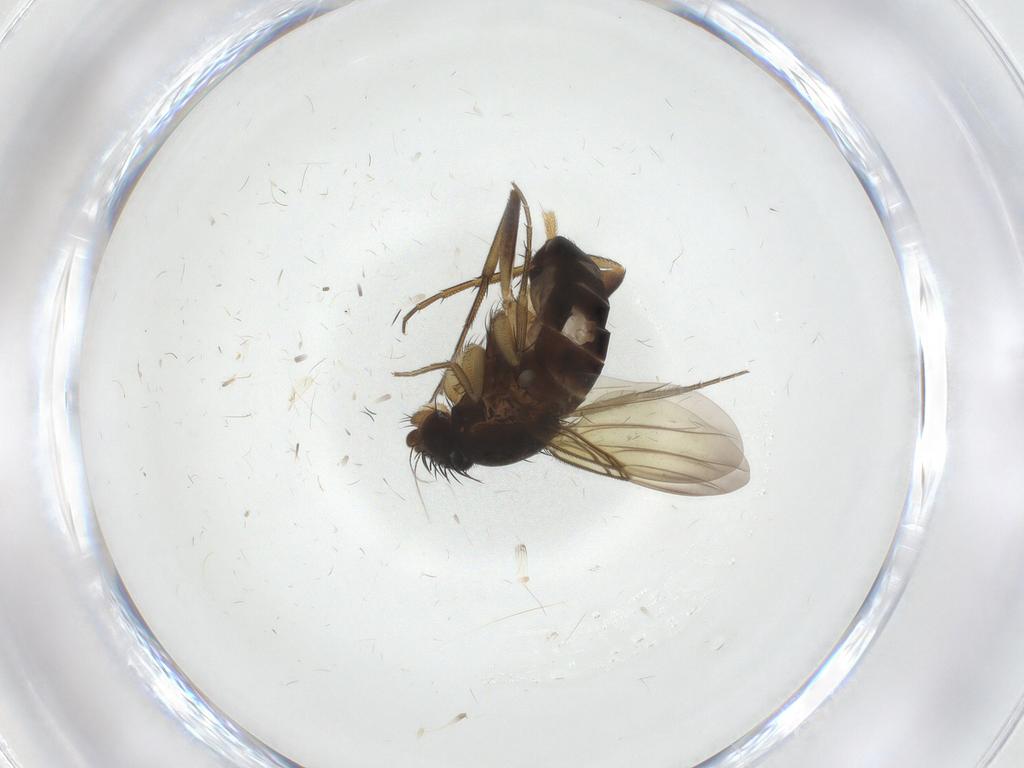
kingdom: Animalia
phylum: Arthropoda
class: Insecta
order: Diptera
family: Phoridae
